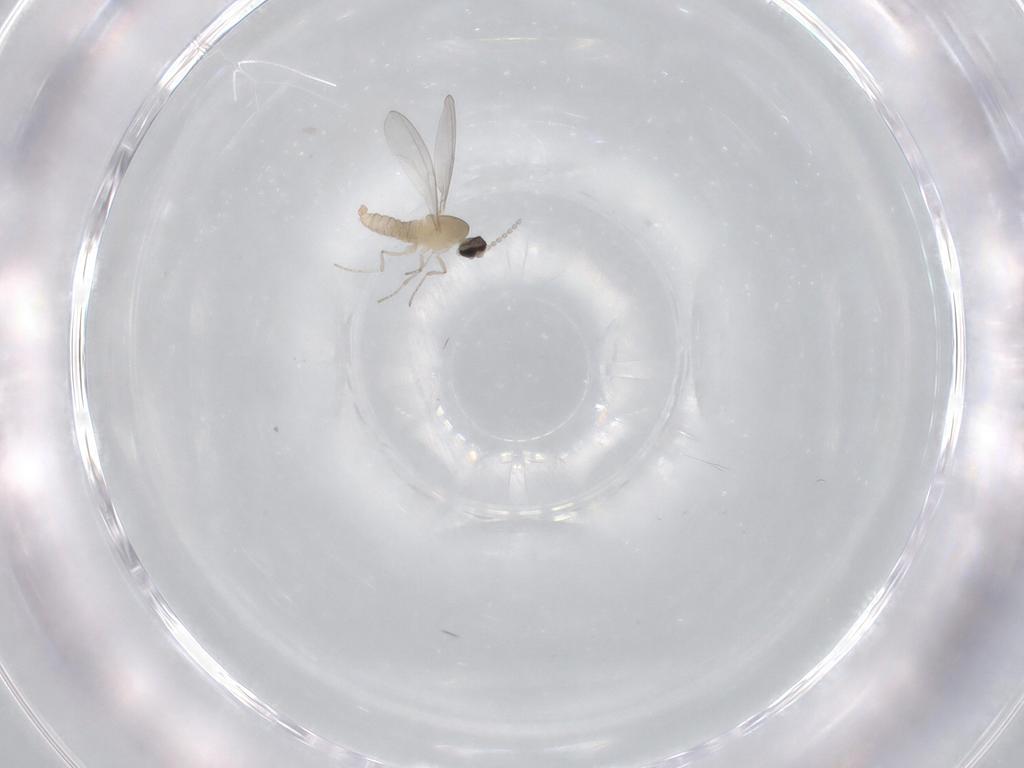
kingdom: Animalia
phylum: Arthropoda
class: Insecta
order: Diptera
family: Cecidomyiidae
